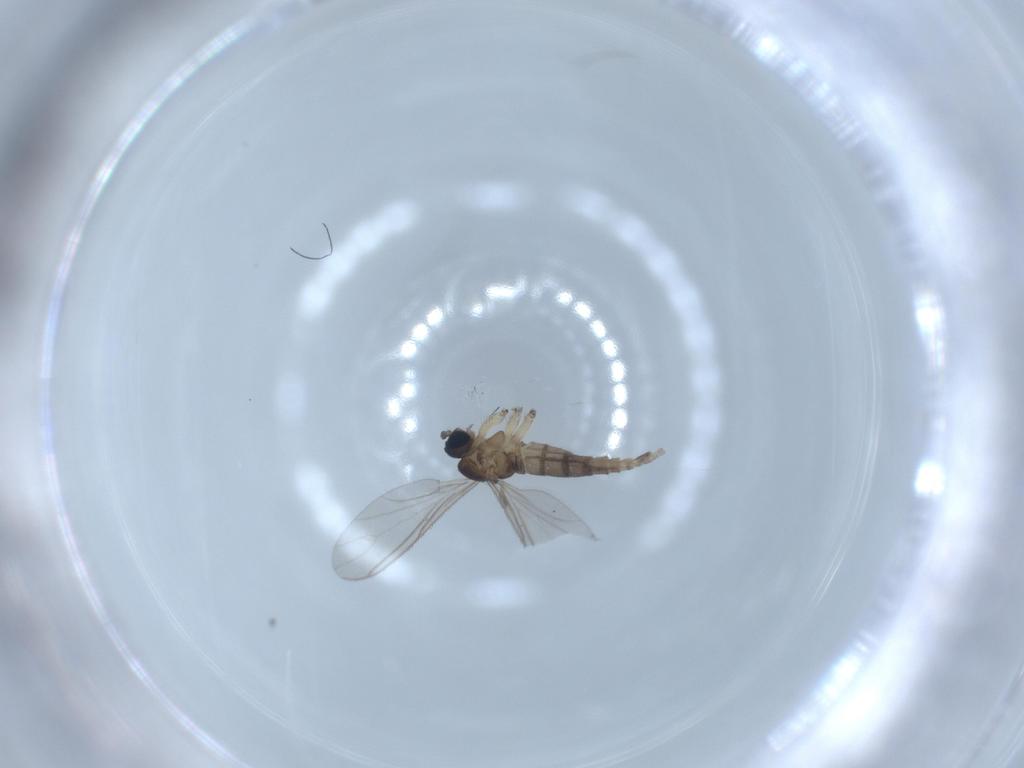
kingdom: Animalia
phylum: Arthropoda
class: Insecta
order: Diptera
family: Sciaridae
